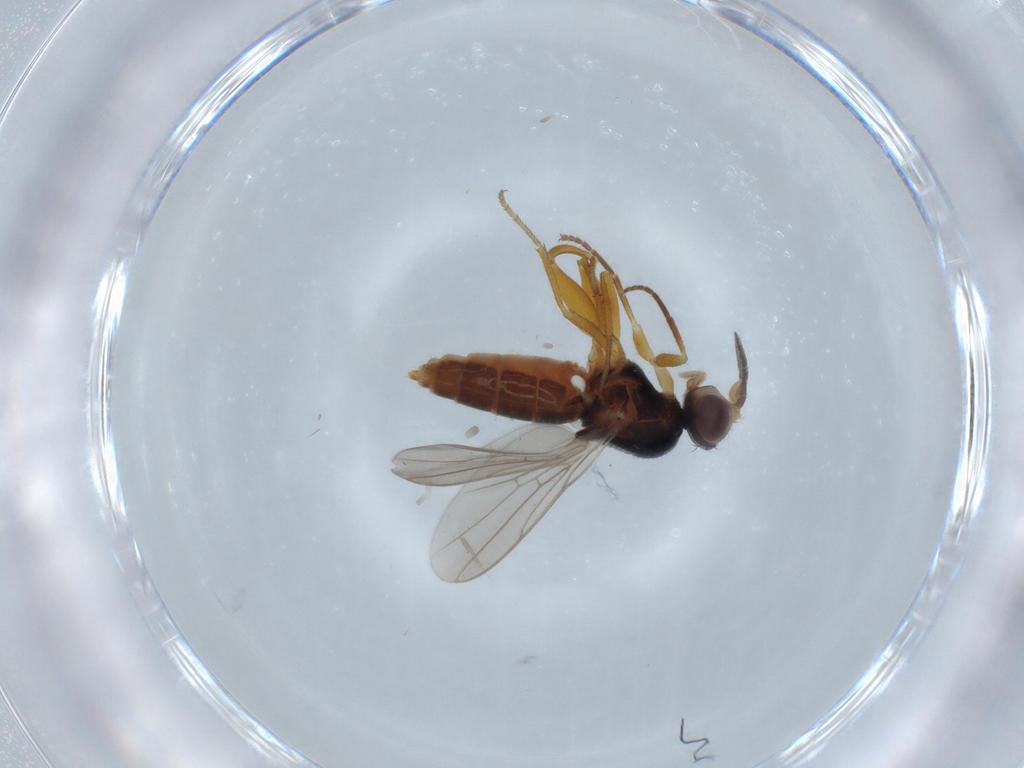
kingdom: Animalia
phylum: Arthropoda
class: Insecta
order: Diptera
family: Chloropidae
